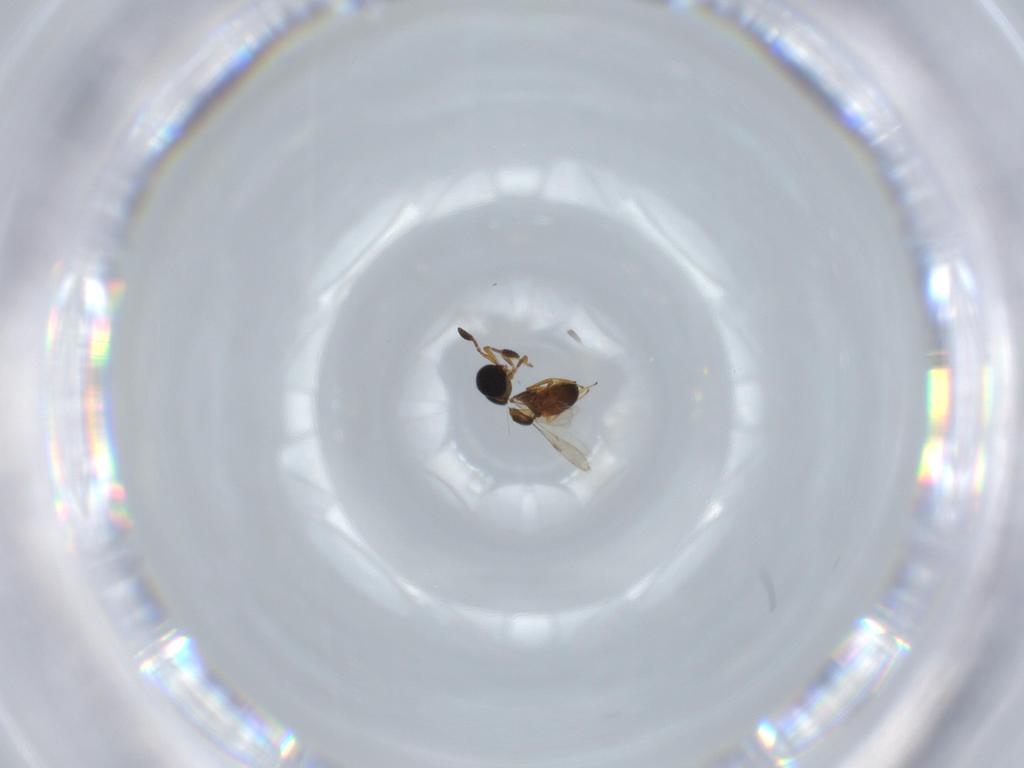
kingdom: Animalia
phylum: Arthropoda
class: Insecta
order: Hymenoptera
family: Scelionidae
